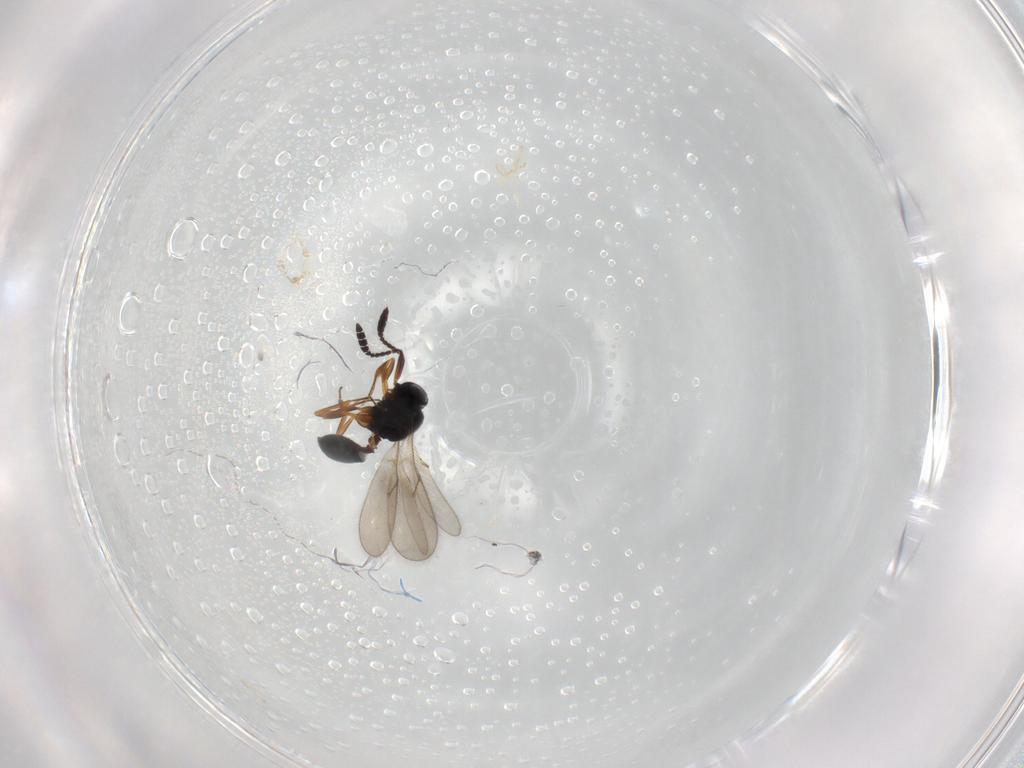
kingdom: Animalia
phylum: Arthropoda
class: Insecta
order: Hymenoptera
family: Scelionidae
